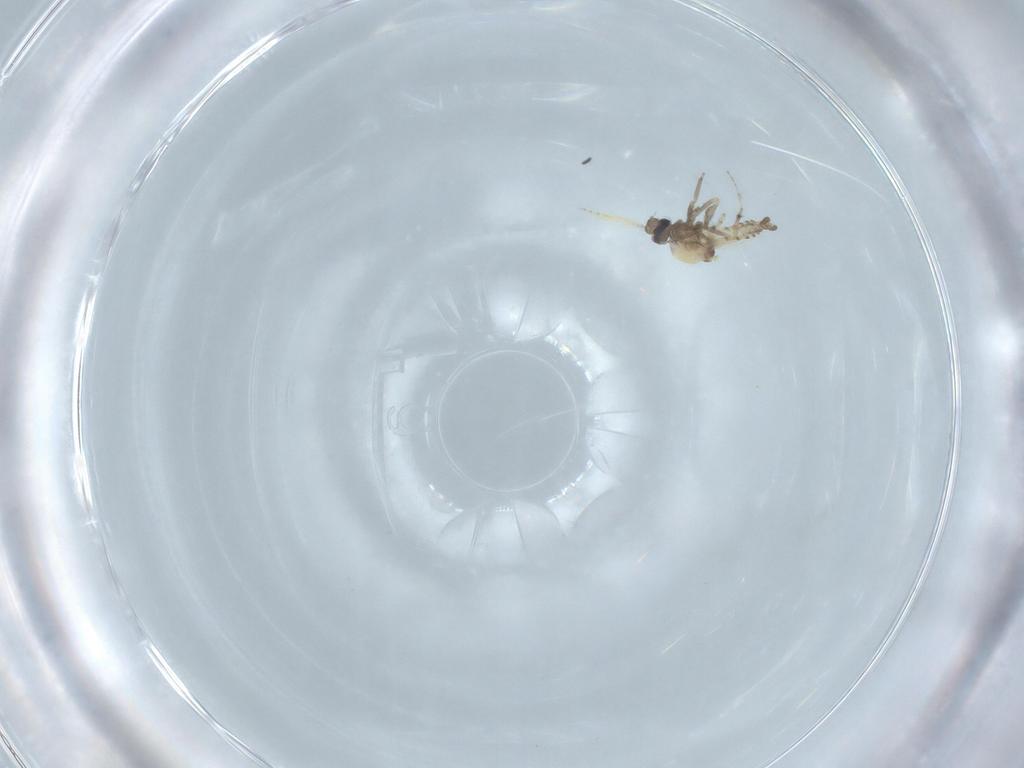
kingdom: Animalia
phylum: Arthropoda
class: Insecta
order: Diptera
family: Ceratopogonidae
